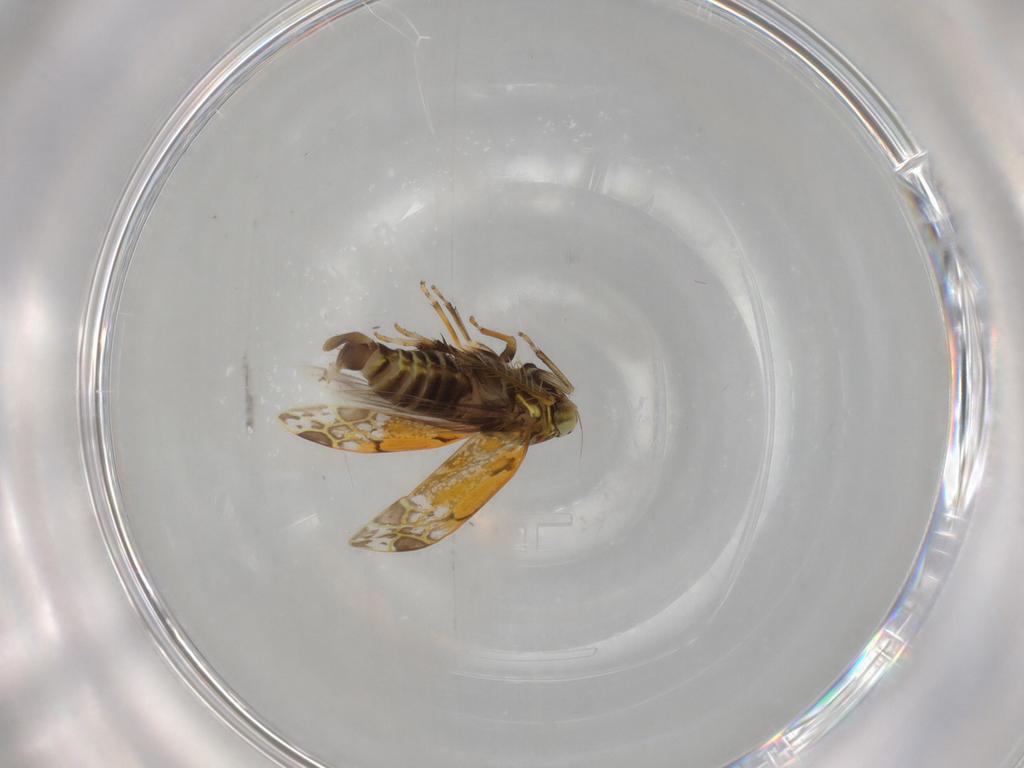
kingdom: Animalia
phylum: Arthropoda
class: Insecta
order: Hemiptera
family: Cicadellidae
